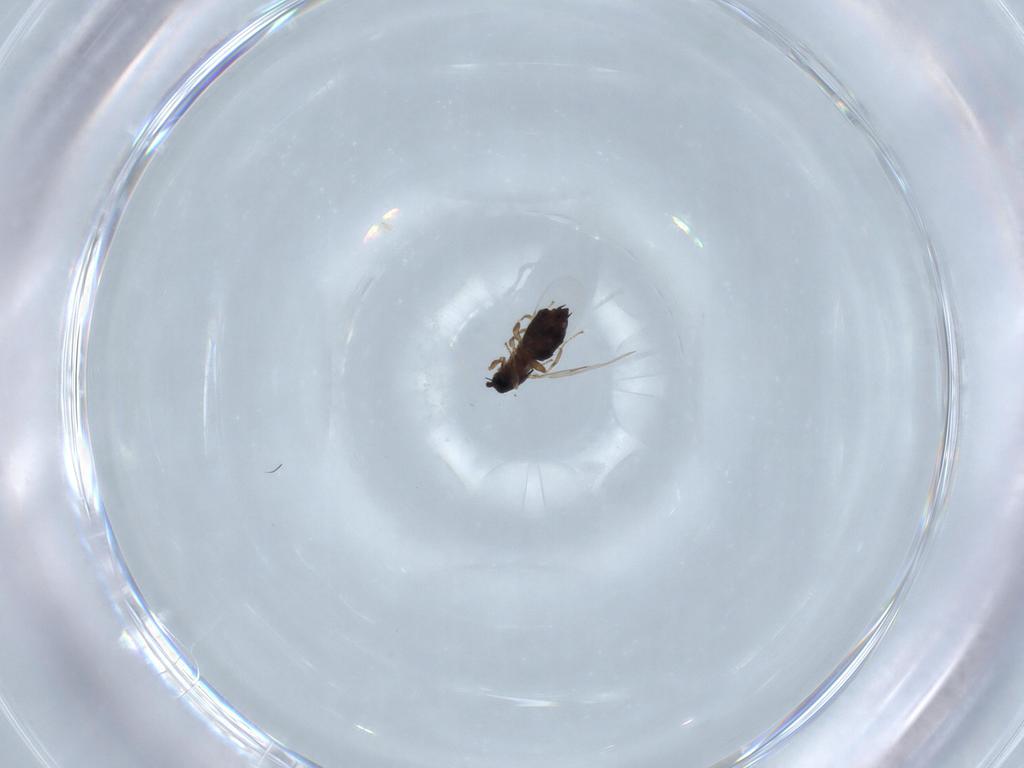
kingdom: Animalia
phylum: Arthropoda
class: Insecta
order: Diptera
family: Scatopsidae
